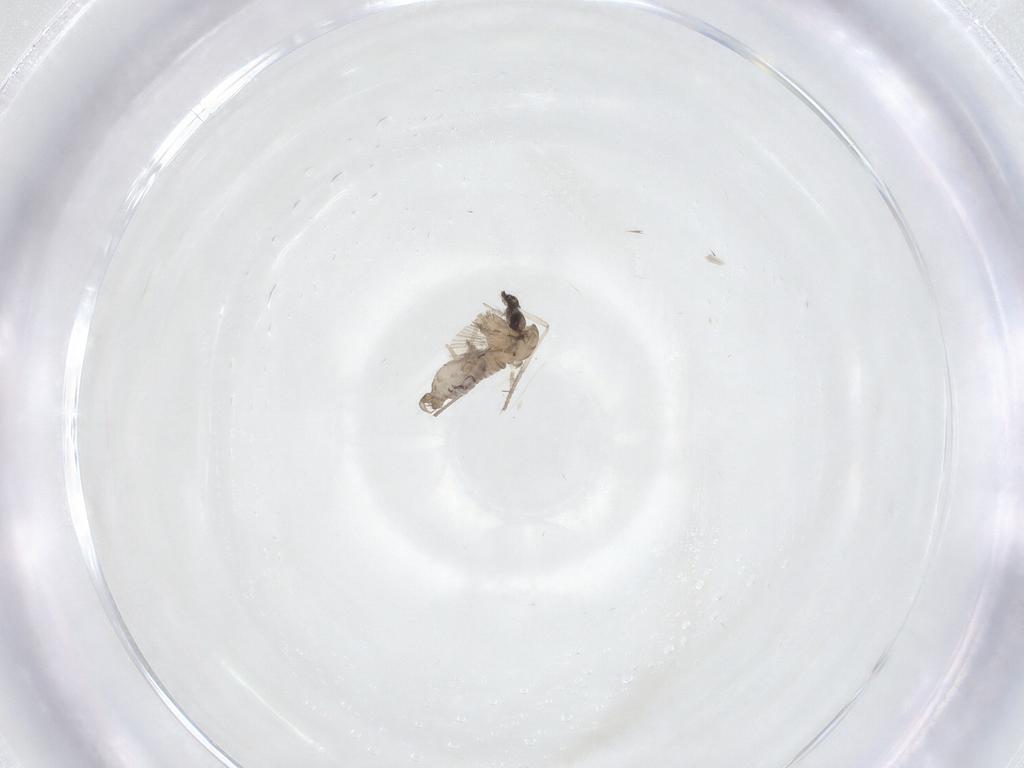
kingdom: Animalia
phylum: Arthropoda
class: Insecta
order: Diptera
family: Psychodidae
